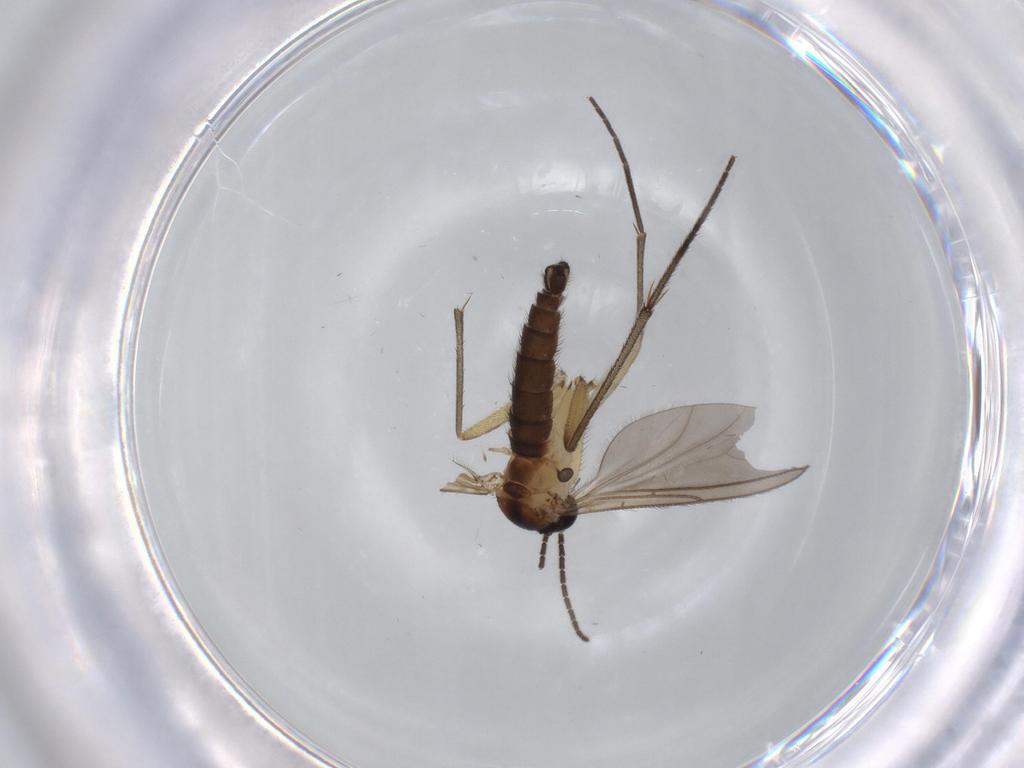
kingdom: Animalia
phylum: Arthropoda
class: Insecta
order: Diptera
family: Sciaridae
